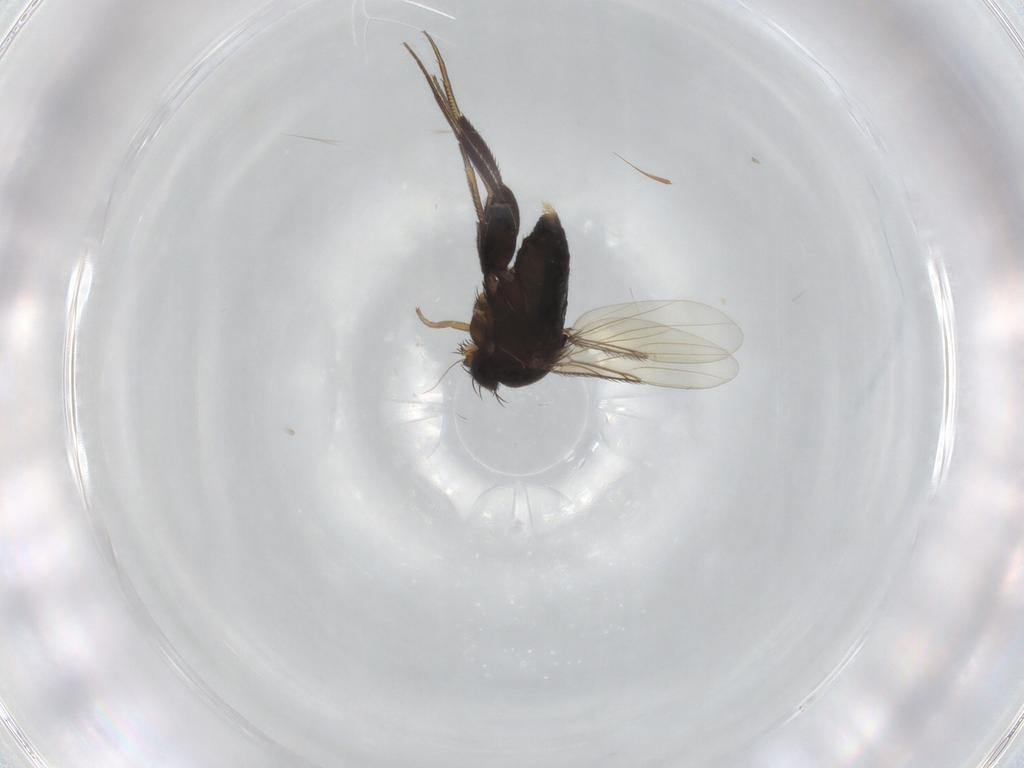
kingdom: Animalia
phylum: Arthropoda
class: Insecta
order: Diptera
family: Phoridae
